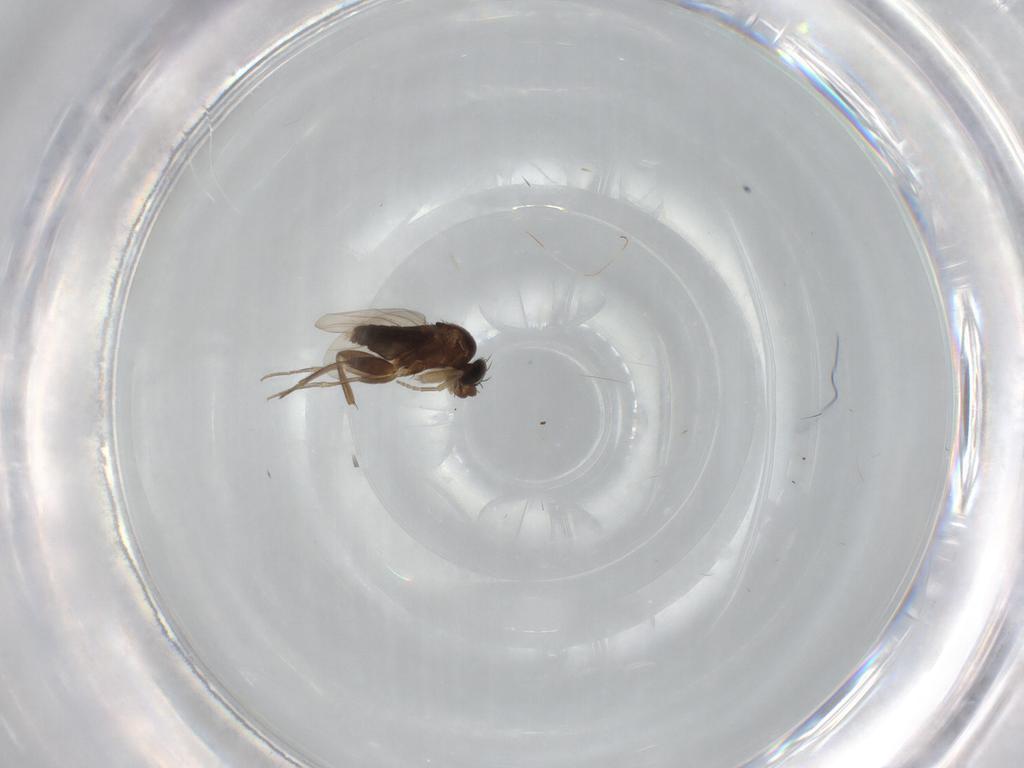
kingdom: Animalia
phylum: Arthropoda
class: Insecta
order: Diptera
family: Phoridae
